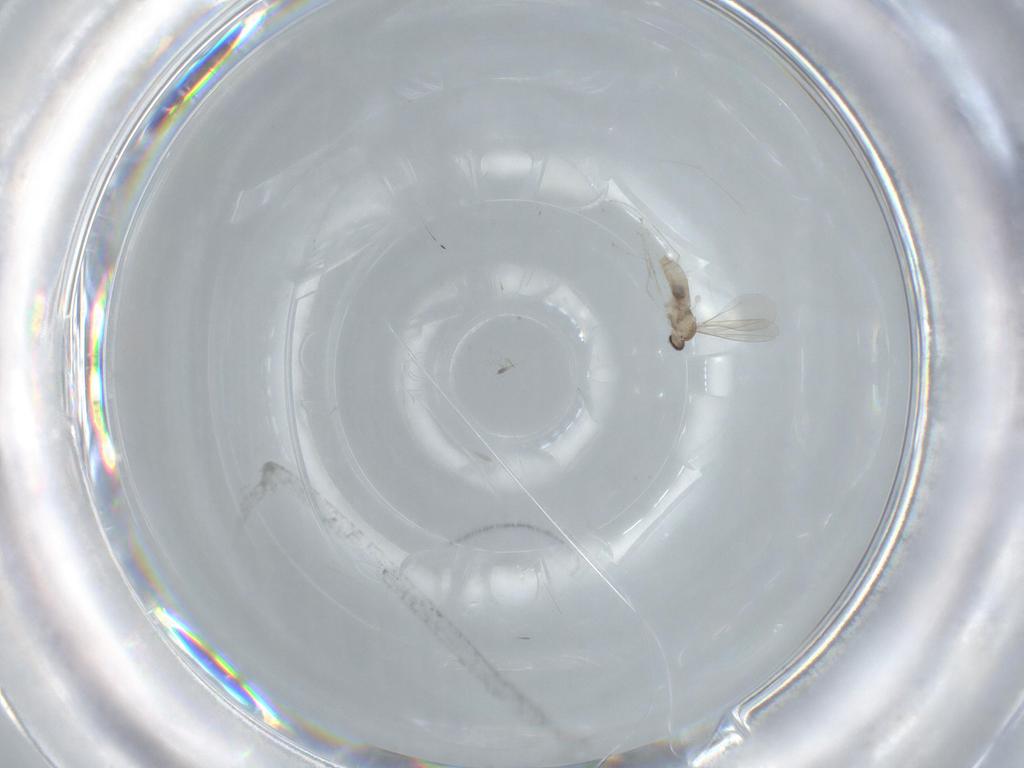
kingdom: Animalia
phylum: Arthropoda
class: Insecta
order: Diptera
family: Cecidomyiidae
